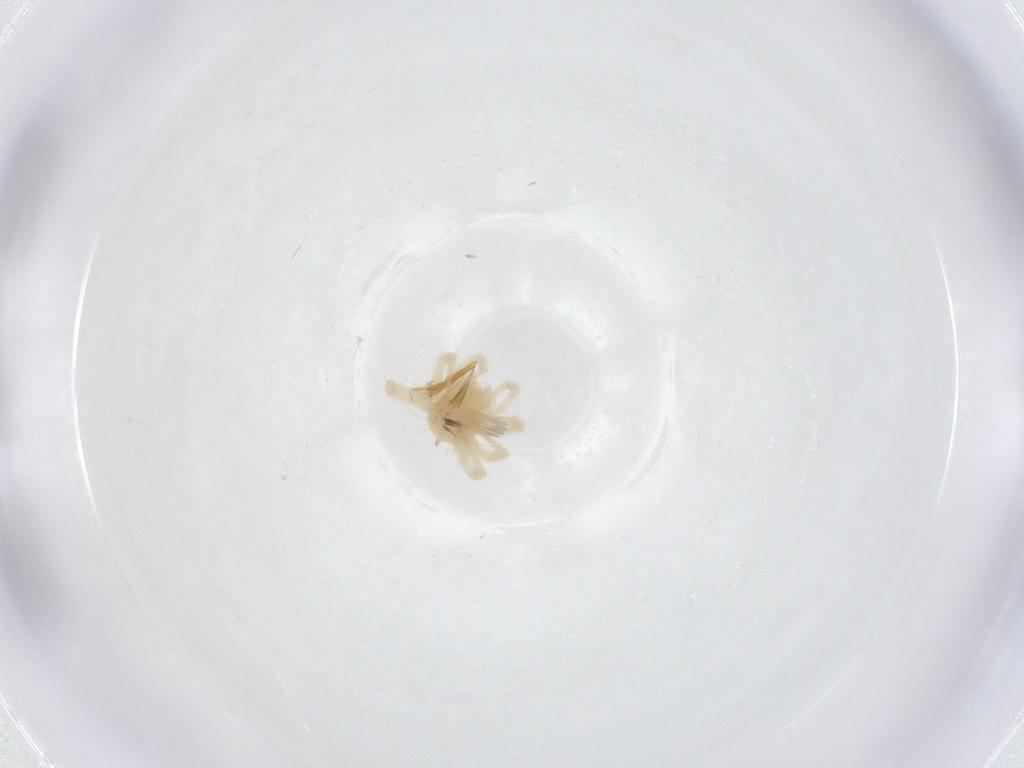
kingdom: Animalia
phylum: Arthropoda
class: Arachnida
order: Trombidiformes
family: Anystidae
